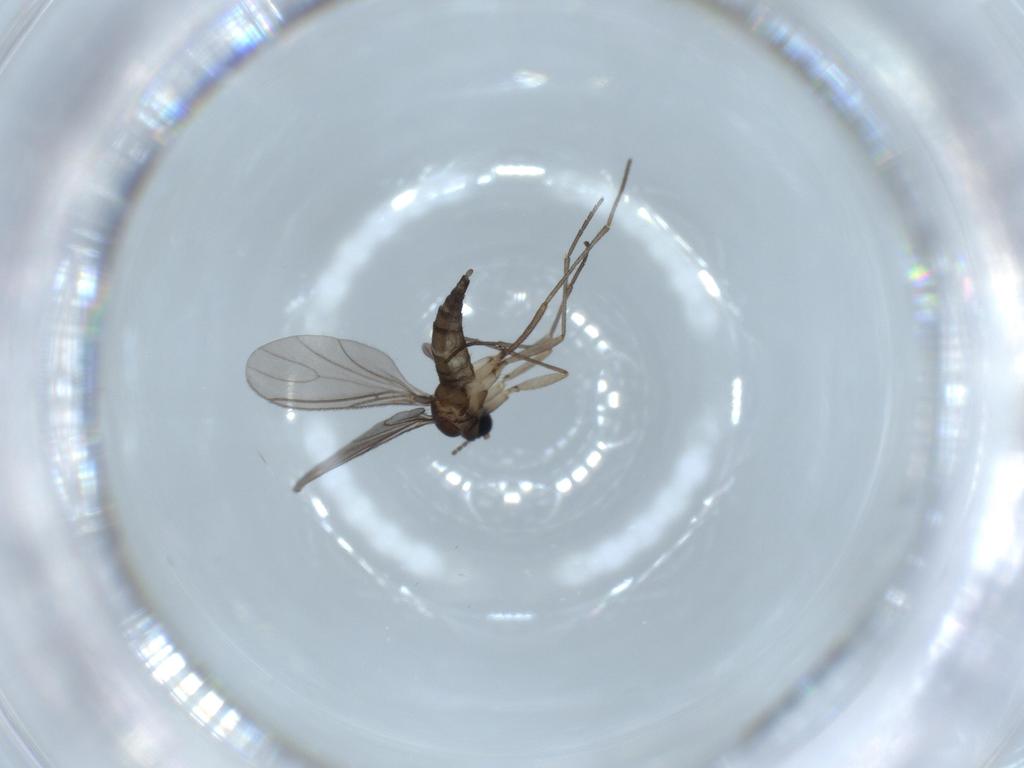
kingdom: Animalia
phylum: Arthropoda
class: Insecta
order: Diptera
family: Sciaridae
